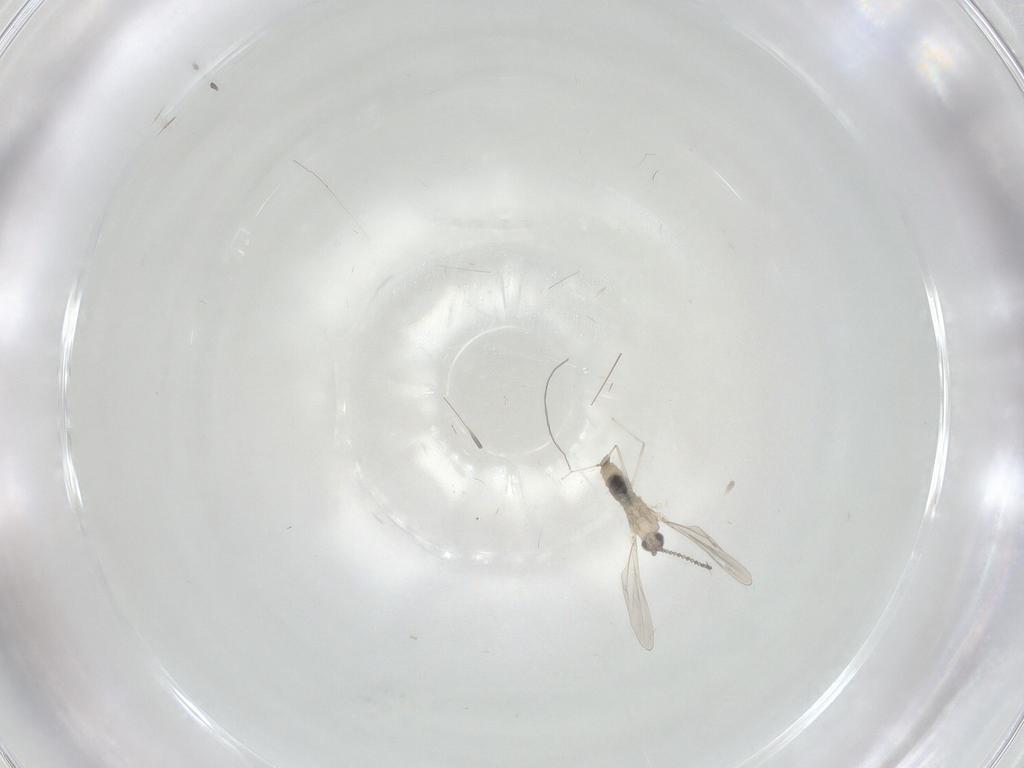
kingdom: Animalia
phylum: Arthropoda
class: Insecta
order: Diptera
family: Cecidomyiidae
